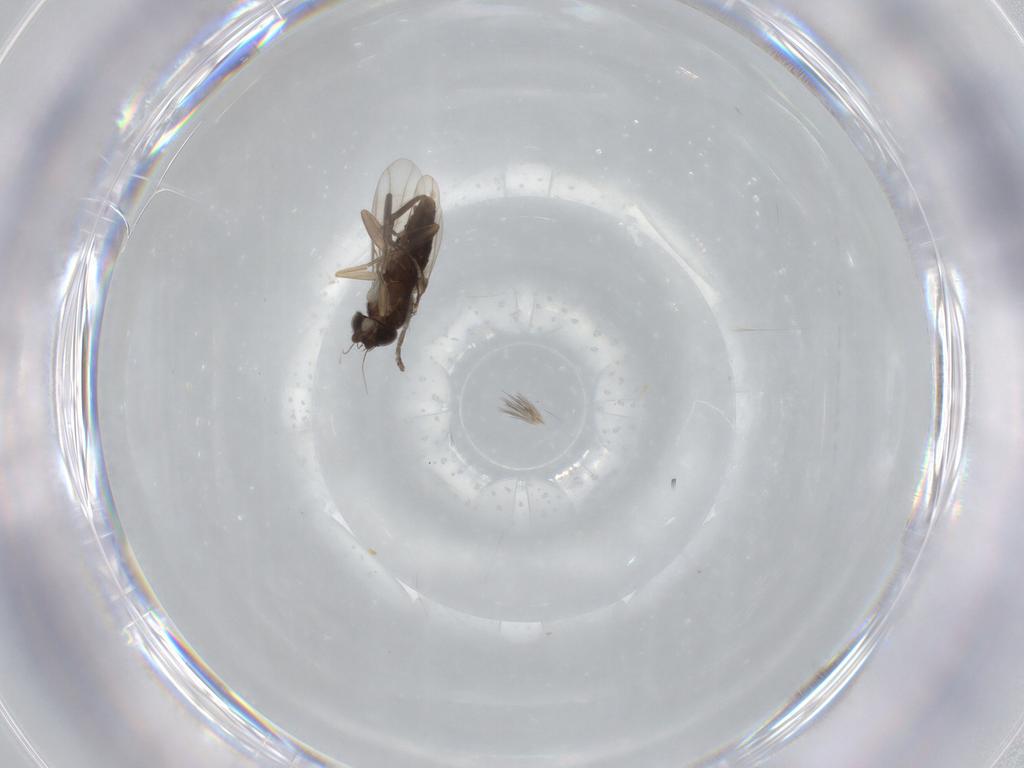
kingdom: Animalia
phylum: Arthropoda
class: Insecta
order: Diptera
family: Phoridae
